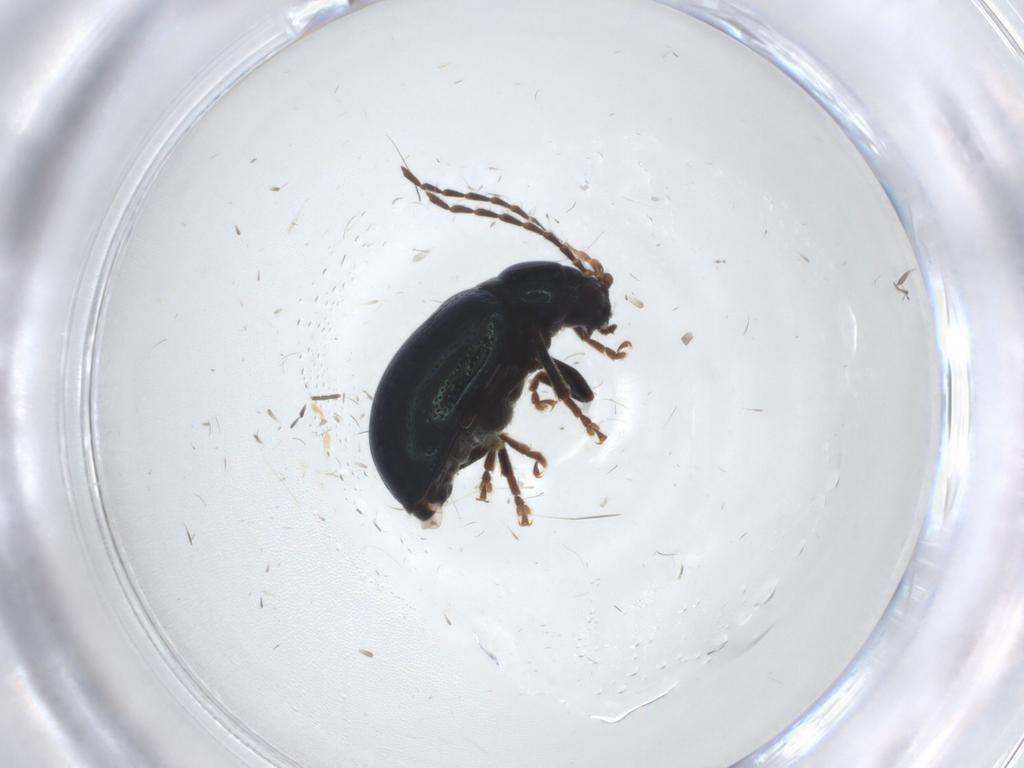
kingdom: Animalia
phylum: Arthropoda
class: Insecta
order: Coleoptera
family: Chrysomelidae
